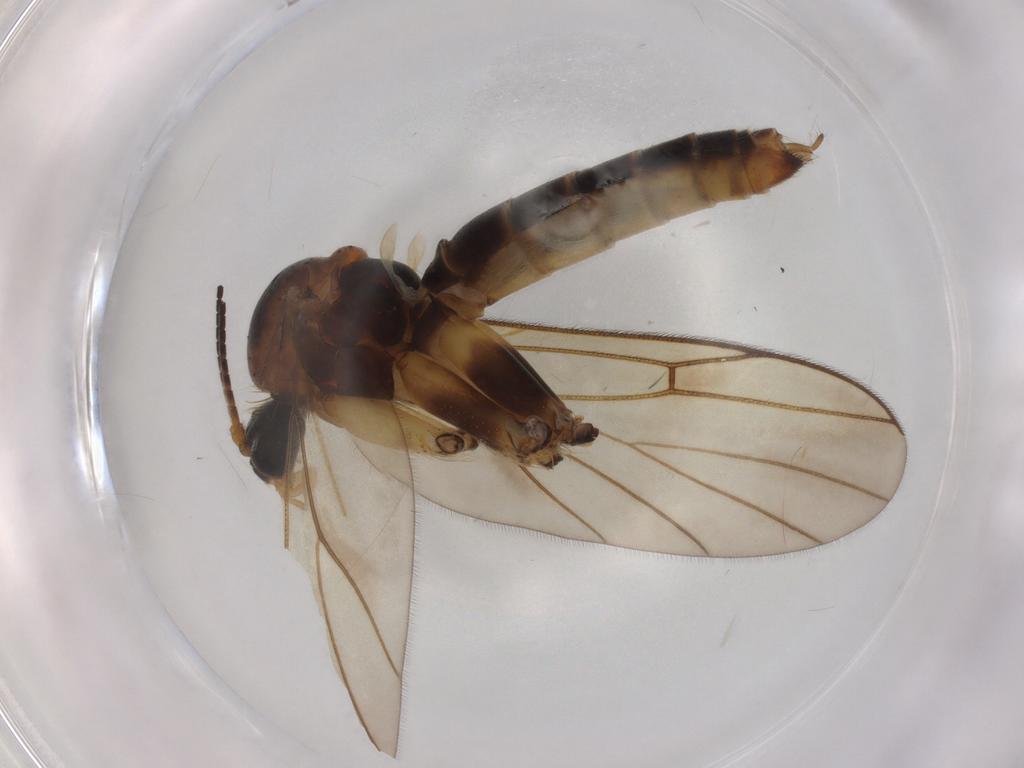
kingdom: Animalia
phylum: Arthropoda
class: Insecta
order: Diptera
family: Mycetophilidae
